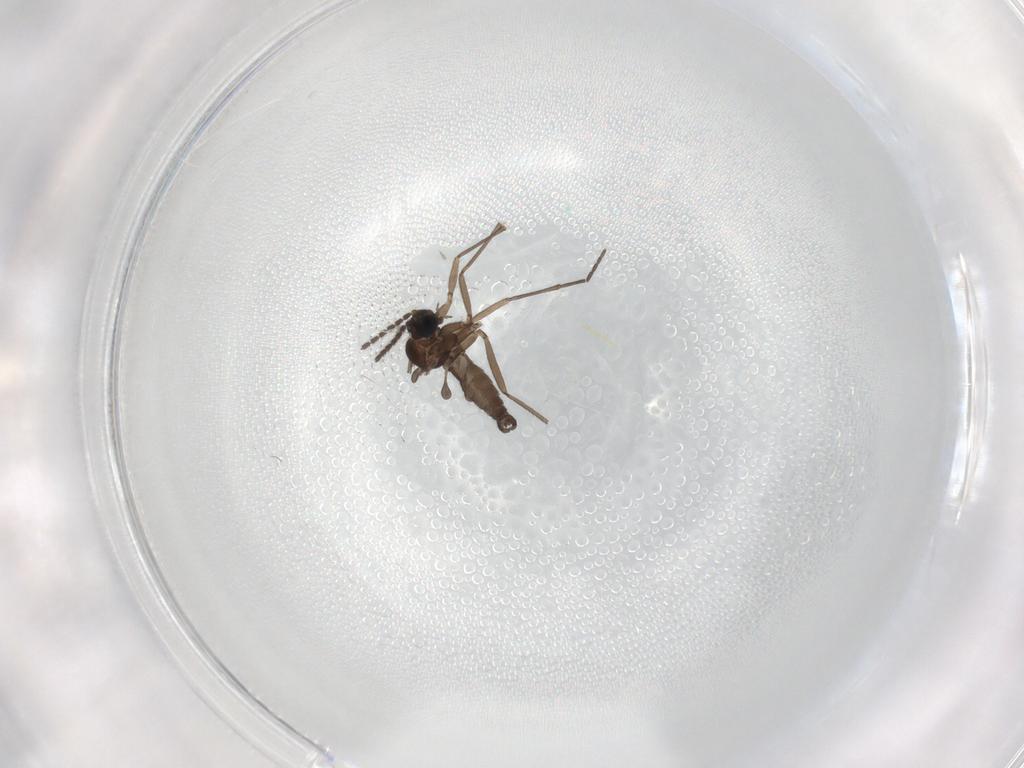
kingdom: Animalia
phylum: Arthropoda
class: Insecta
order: Diptera
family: Sciaridae
